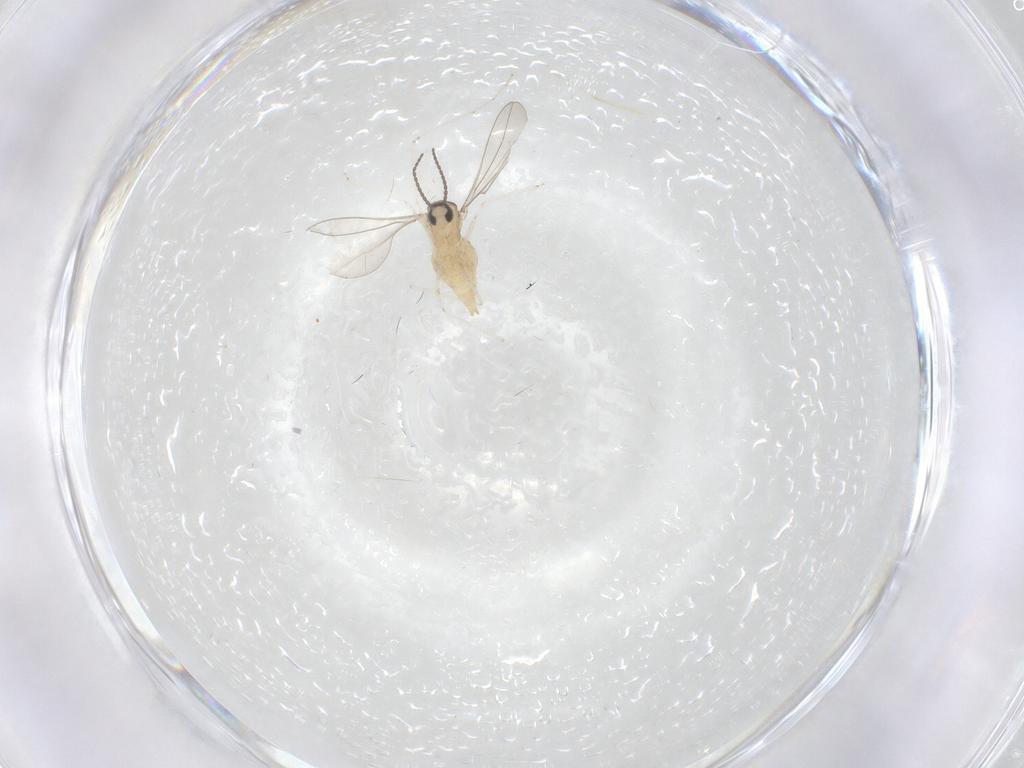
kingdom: Animalia
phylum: Arthropoda
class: Insecta
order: Diptera
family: Cecidomyiidae
